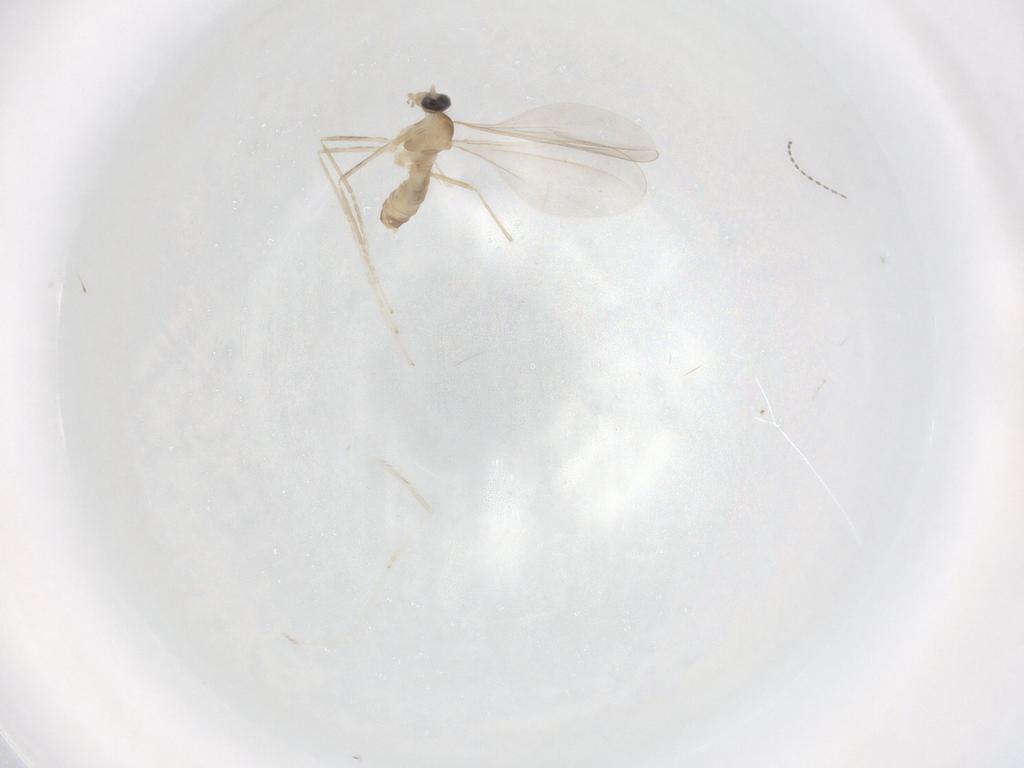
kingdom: Animalia
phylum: Arthropoda
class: Insecta
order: Diptera
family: Cecidomyiidae
